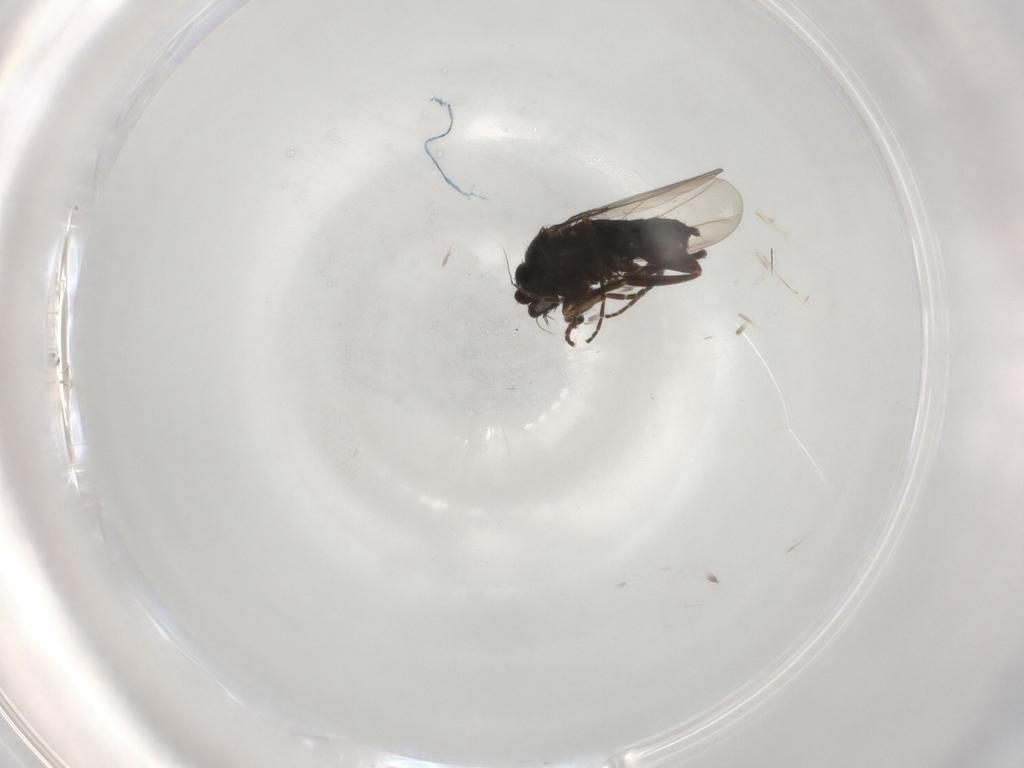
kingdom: Animalia
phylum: Arthropoda
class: Insecta
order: Diptera
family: Phoridae
